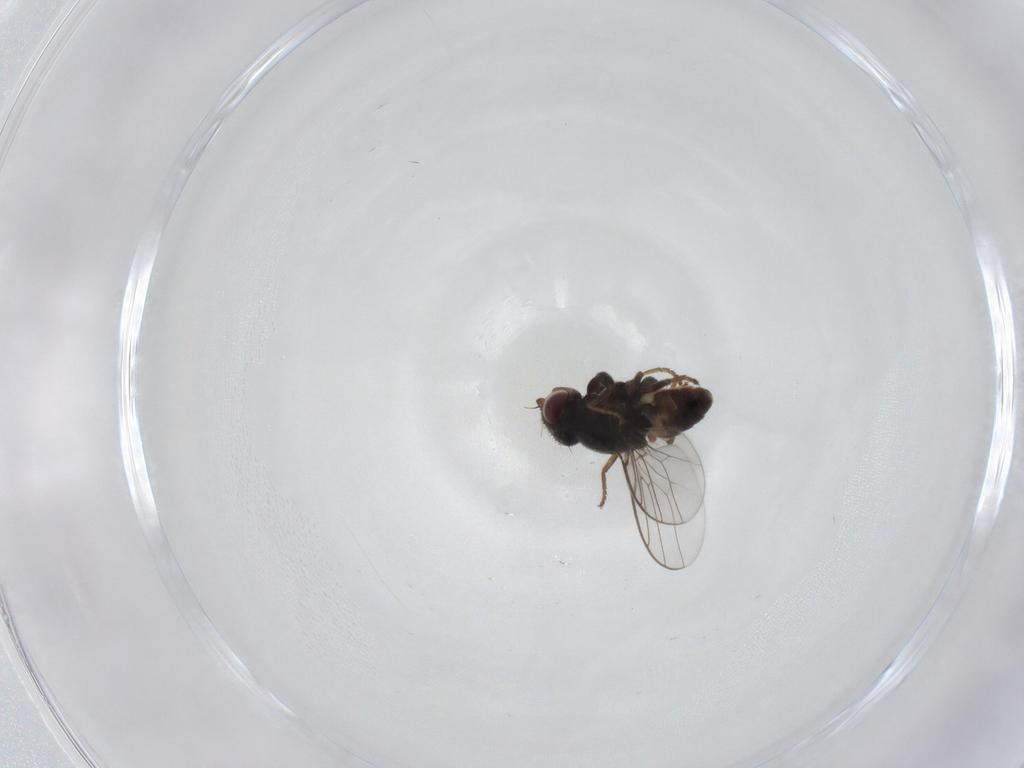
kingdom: Animalia
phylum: Arthropoda
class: Insecta
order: Diptera
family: Chloropidae
